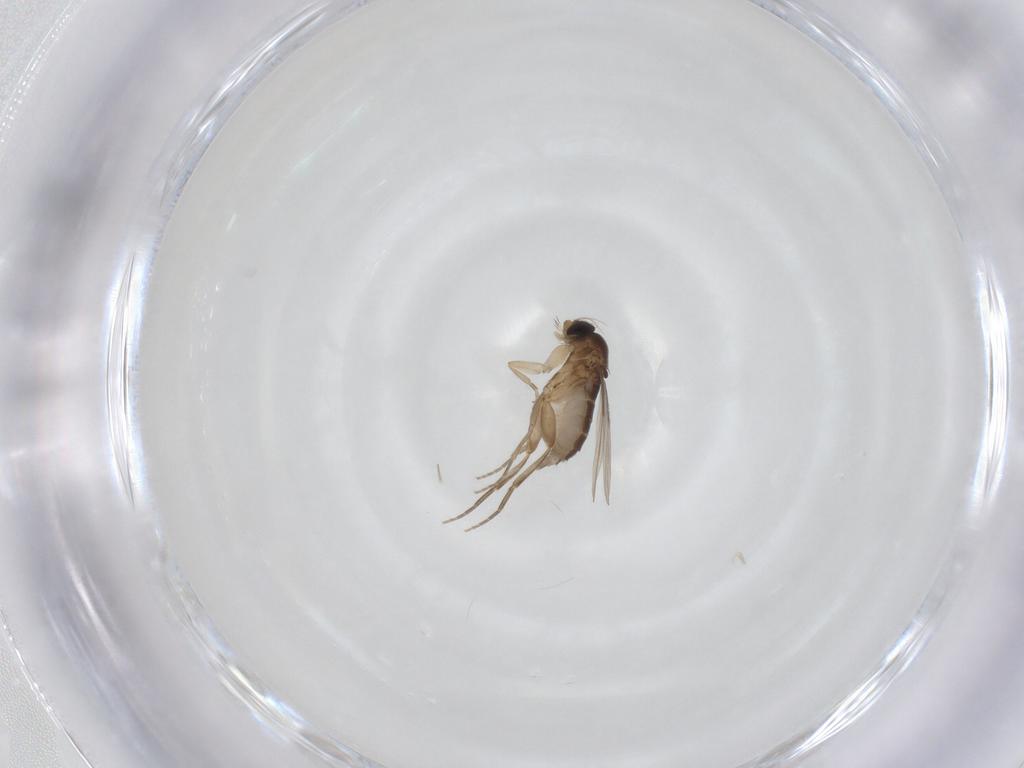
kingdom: Animalia
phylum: Arthropoda
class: Insecta
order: Diptera
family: Phoridae
